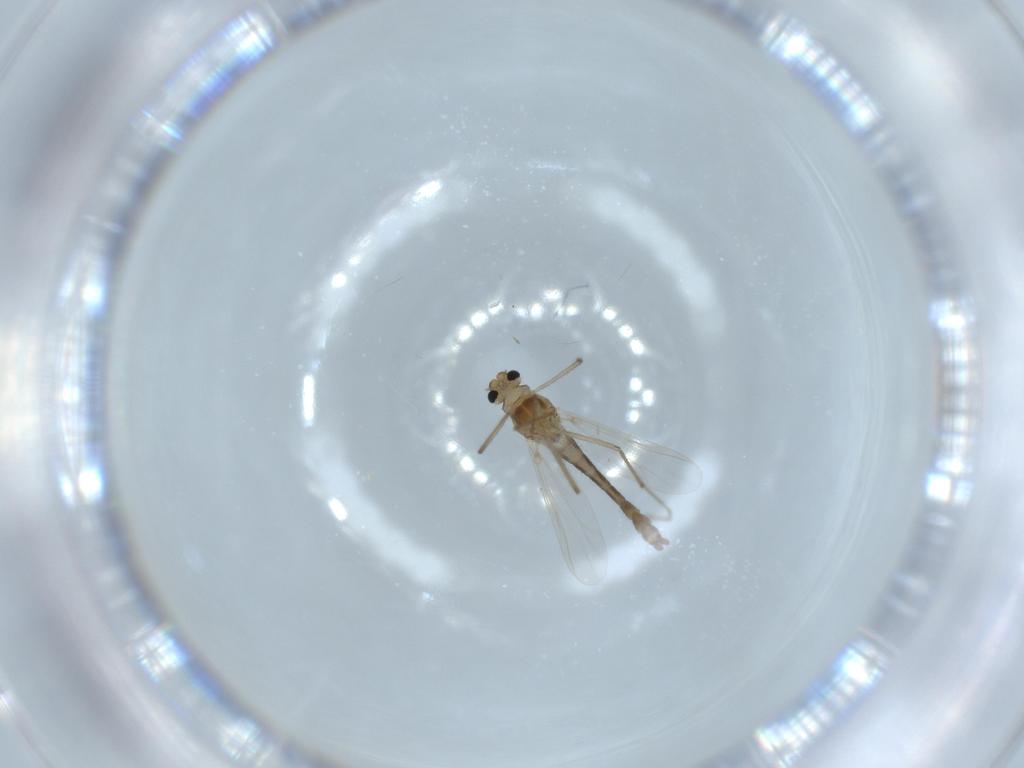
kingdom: Animalia
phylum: Arthropoda
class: Insecta
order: Diptera
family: Chironomidae
